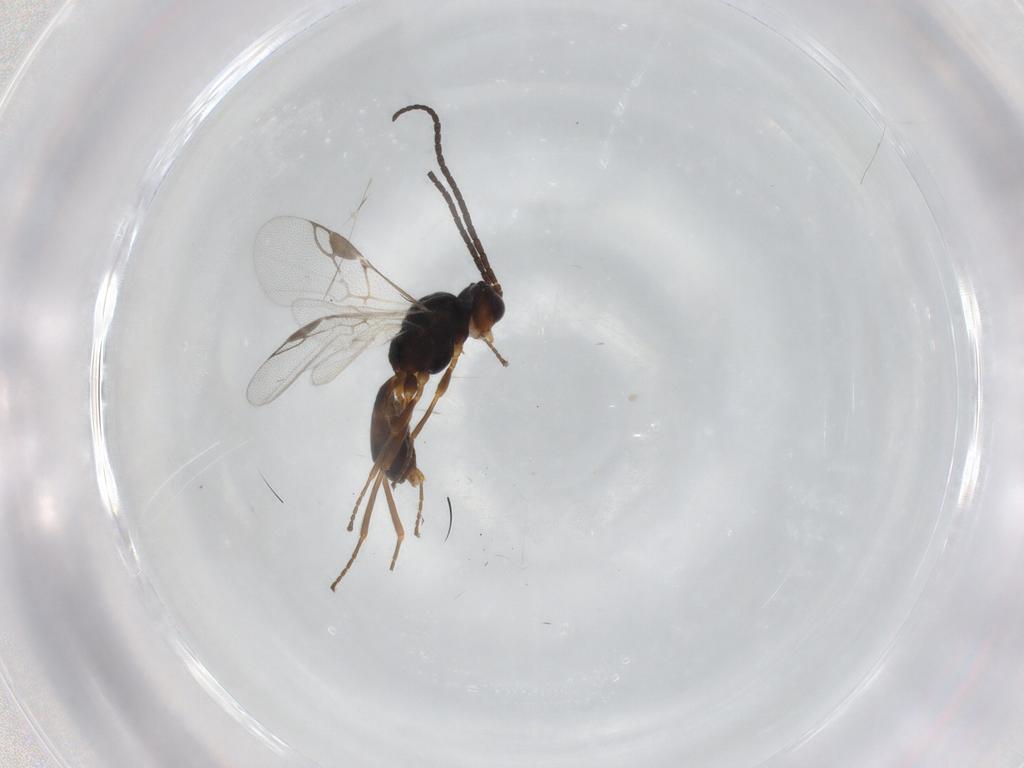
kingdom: Animalia
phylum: Arthropoda
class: Insecta
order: Hymenoptera
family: Braconidae
